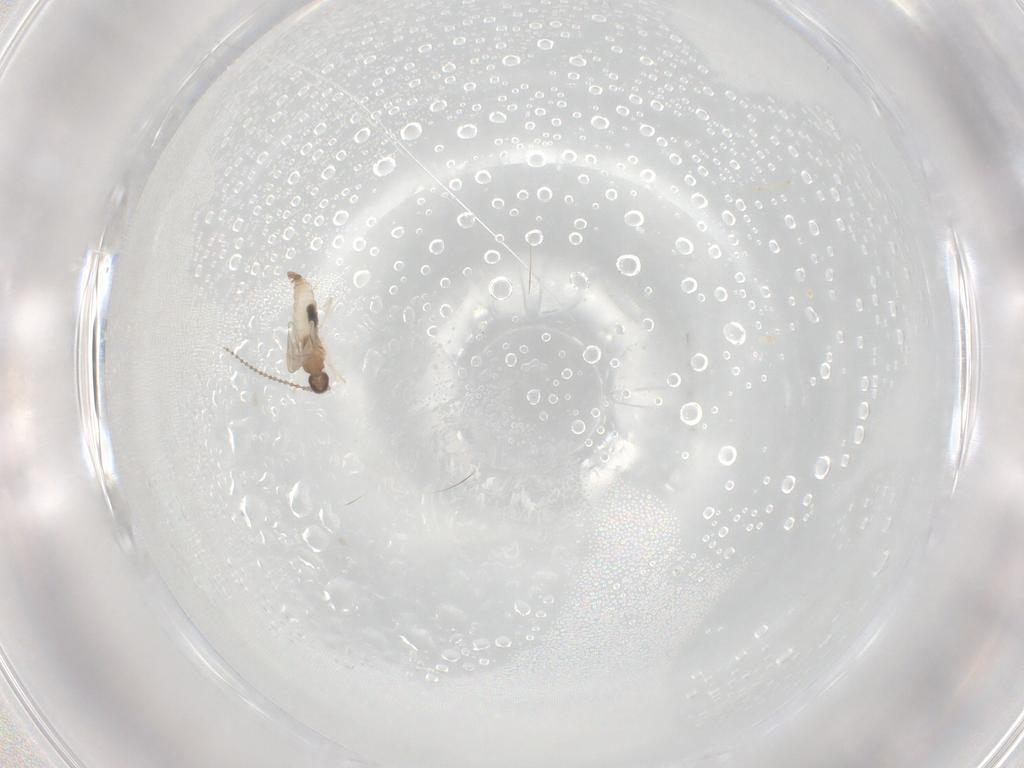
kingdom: Animalia
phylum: Arthropoda
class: Insecta
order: Diptera
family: Cecidomyiidae
